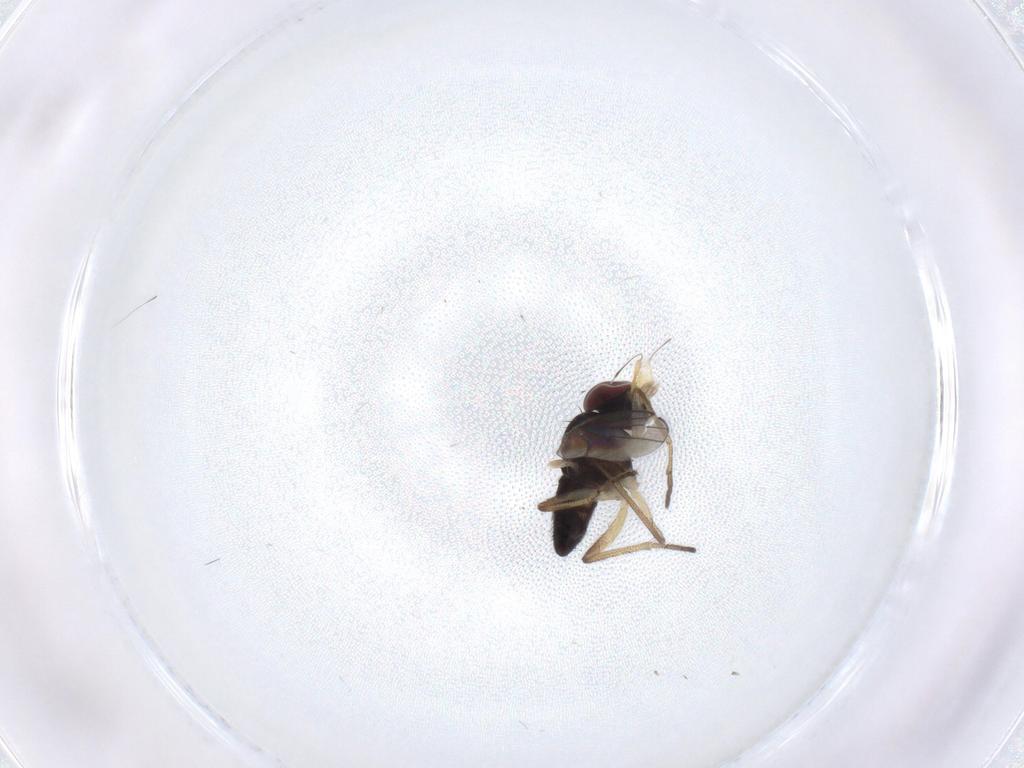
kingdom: Animalia
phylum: Arthropoda
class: Insecta
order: Diptera
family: Dolichopodidae
